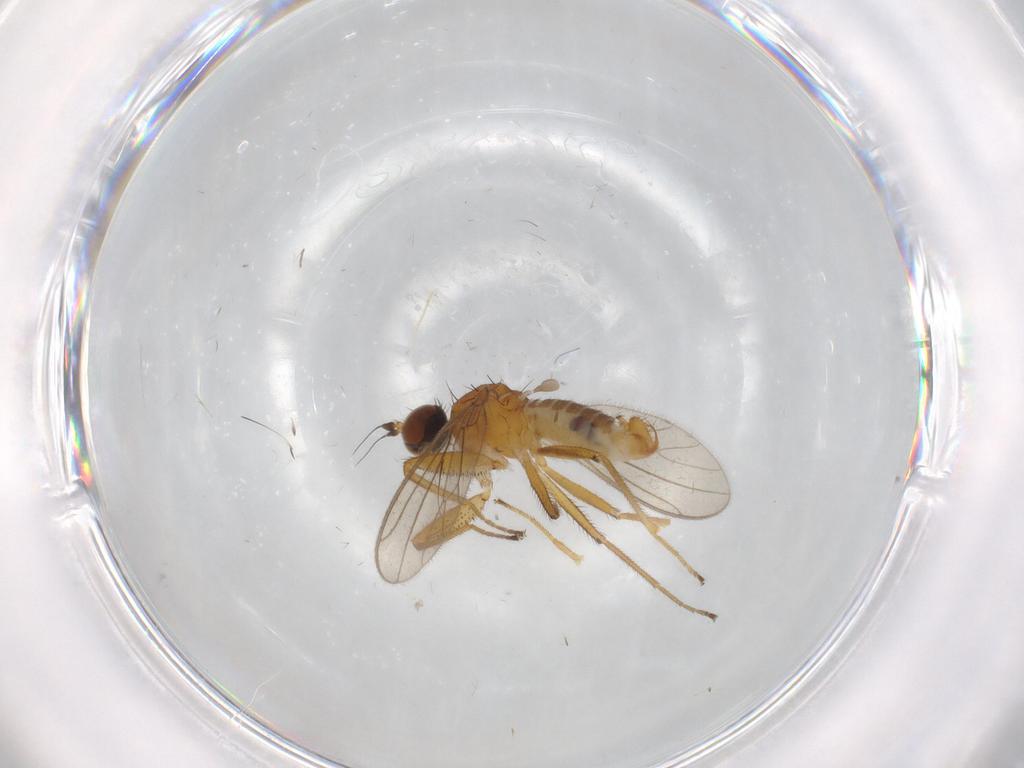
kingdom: Animalia
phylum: Arthropoda
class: Insecta
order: Diptera
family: Empididae
